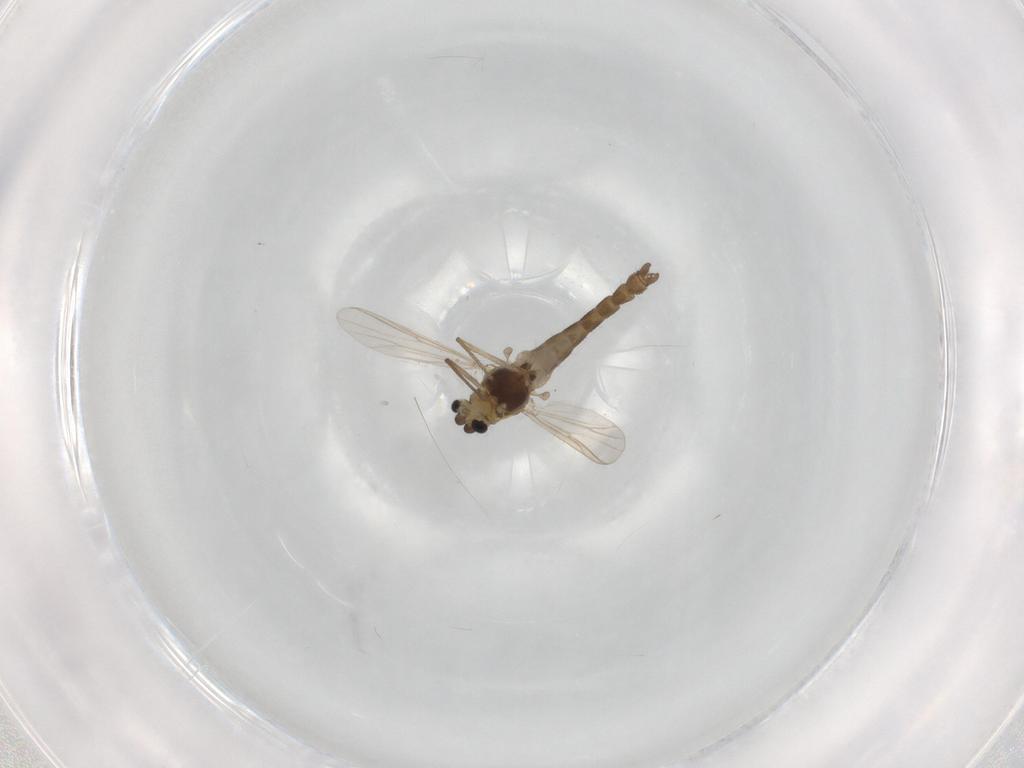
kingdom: Animalia
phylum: Arthropoda
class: Insecta
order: Diptera
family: Chironomidae
